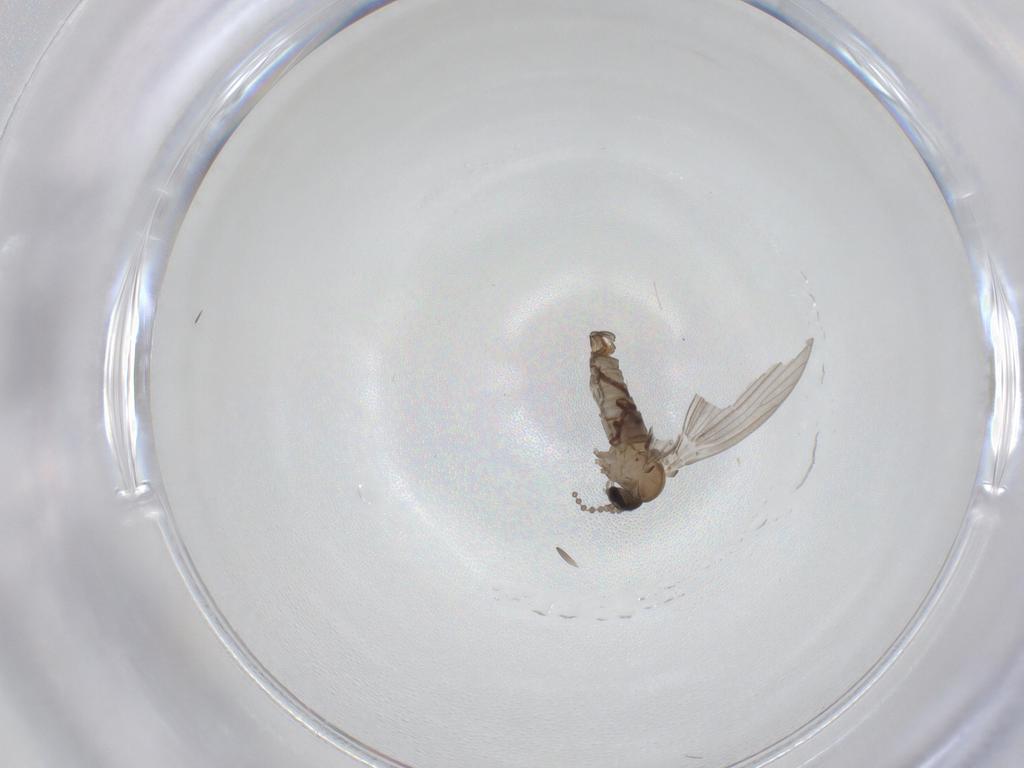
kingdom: Animalia
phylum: Arthropoda
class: Insecta
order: Diptera
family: Psychodidae
